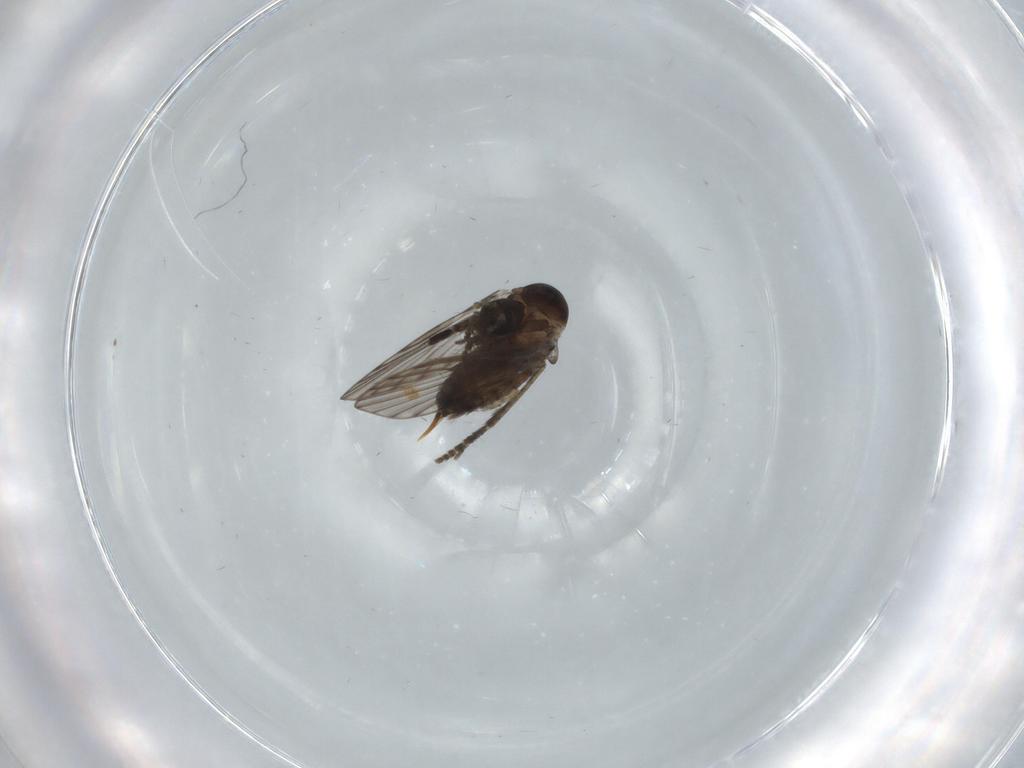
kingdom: Animalia
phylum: Arthropoda
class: Insecta
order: Diptera
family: Psychodidae
